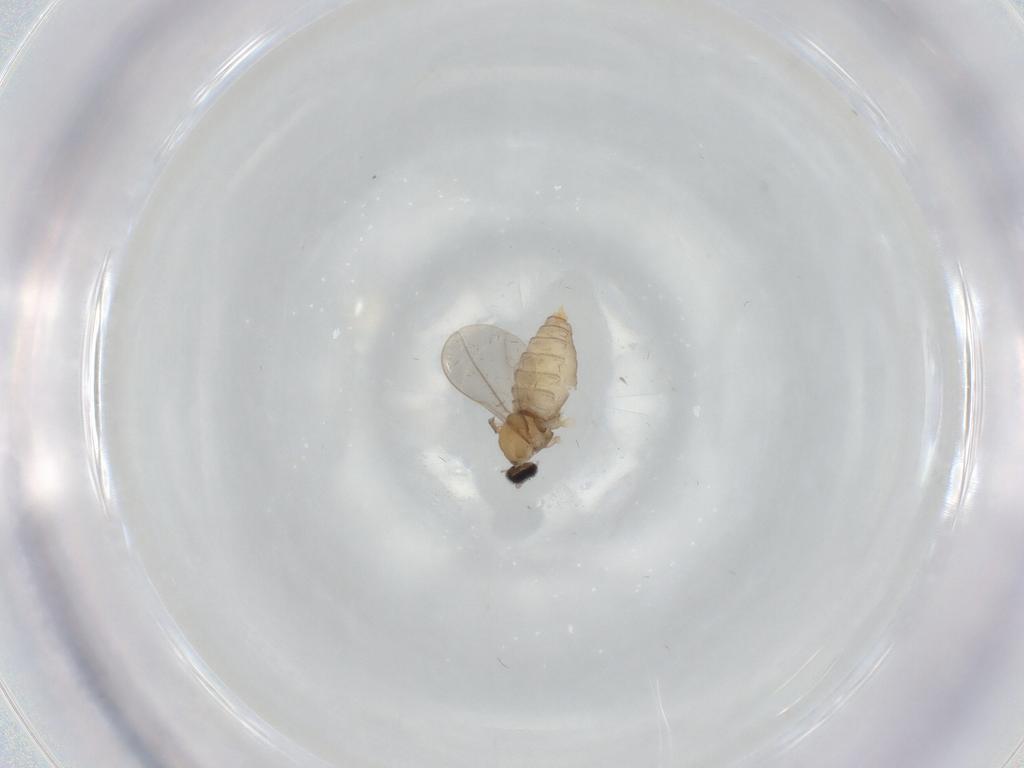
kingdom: Animalia
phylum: Arthropoda
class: Insecta
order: Diptera
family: Cecidomyiidae
